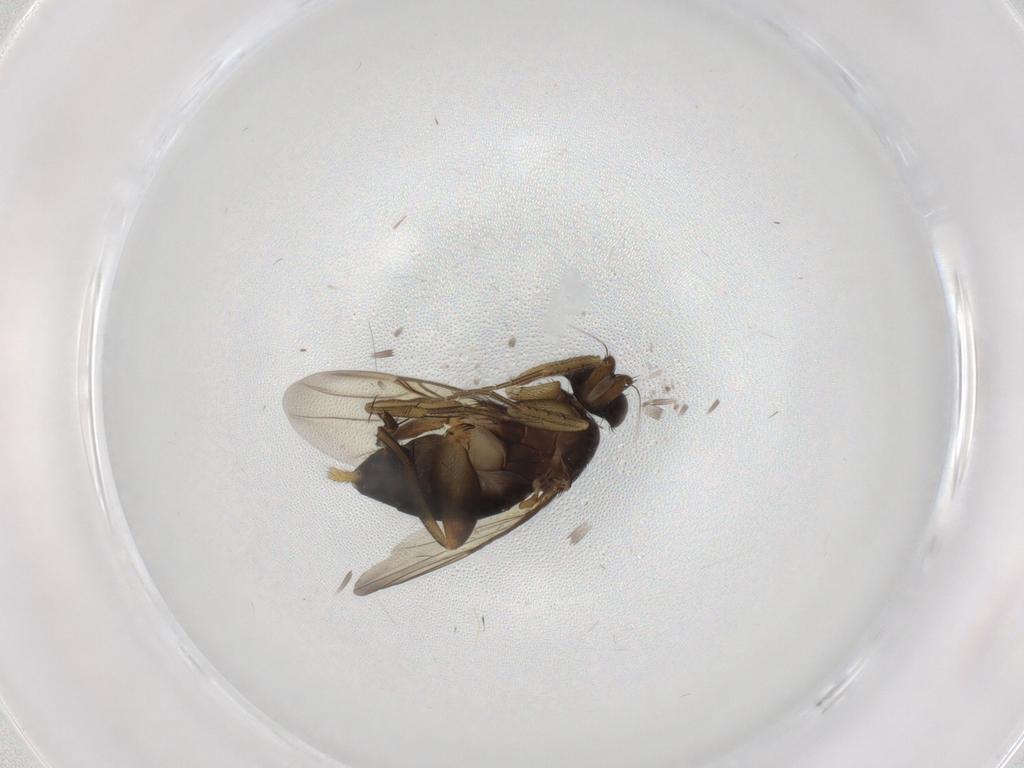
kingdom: Animalia
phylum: Arthropoda
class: Insecta
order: Diptera
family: Phoridae
